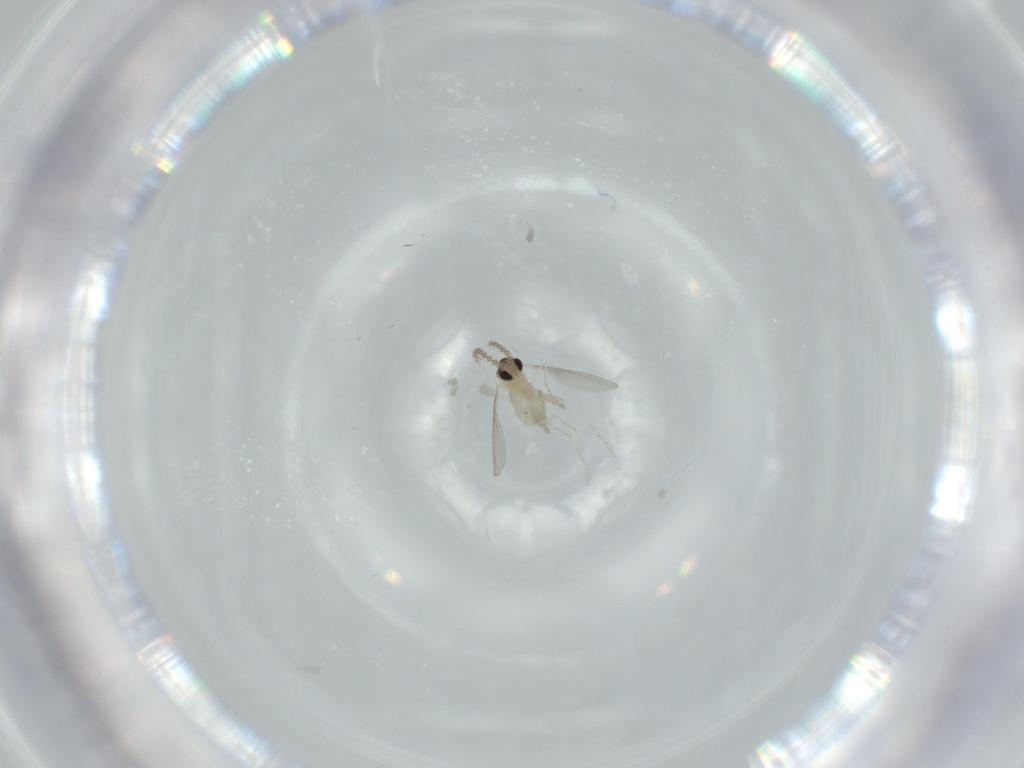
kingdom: Animalia
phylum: Arthropoda
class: Insecta
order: Diptera
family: Cecidomyiidae
